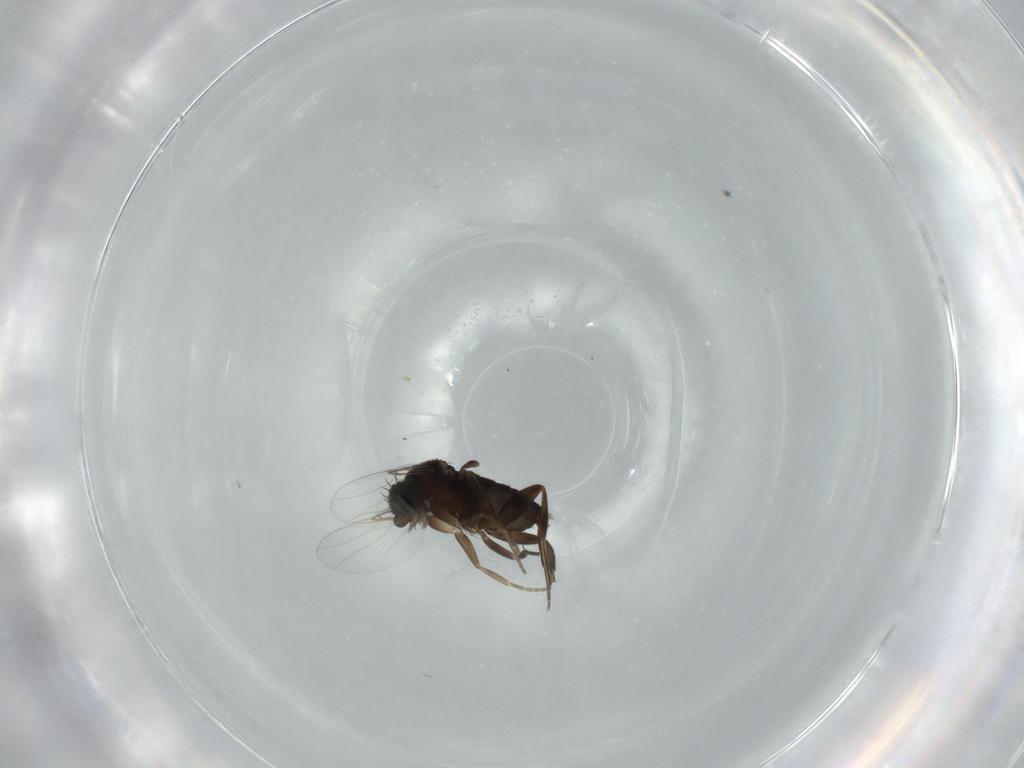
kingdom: Animalia
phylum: Arthropoda
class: Insecta
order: Diptera
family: Phoridae
